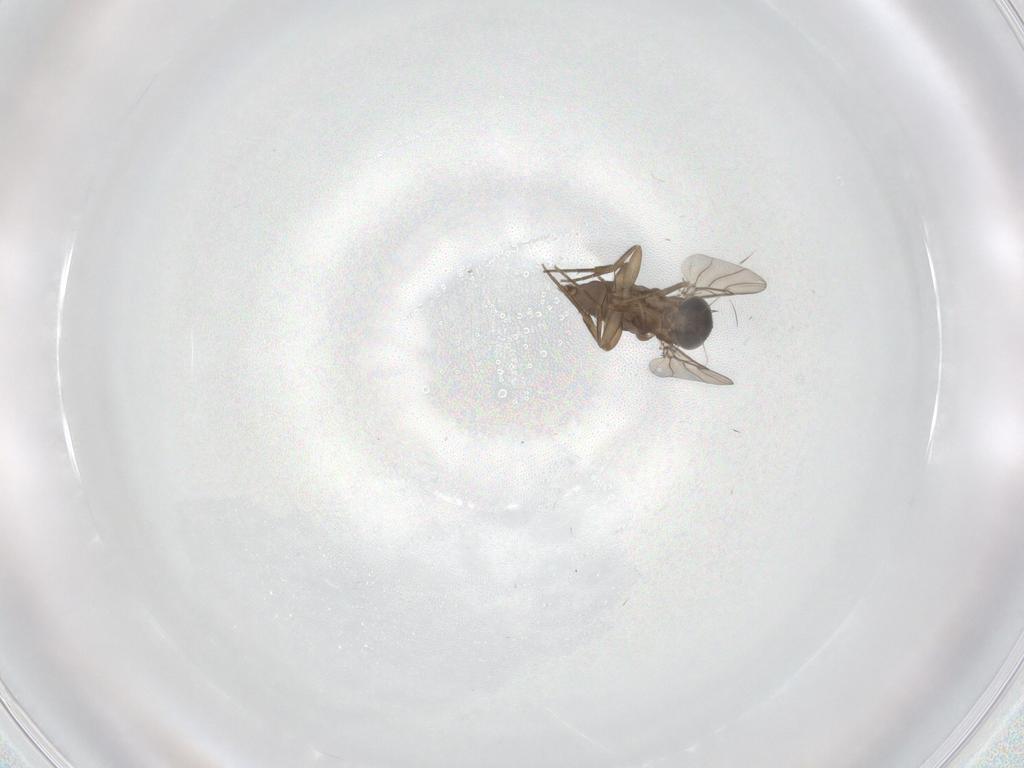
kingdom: Animalia
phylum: Arthropoda
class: Insecta
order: Diptera
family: Phoridae
